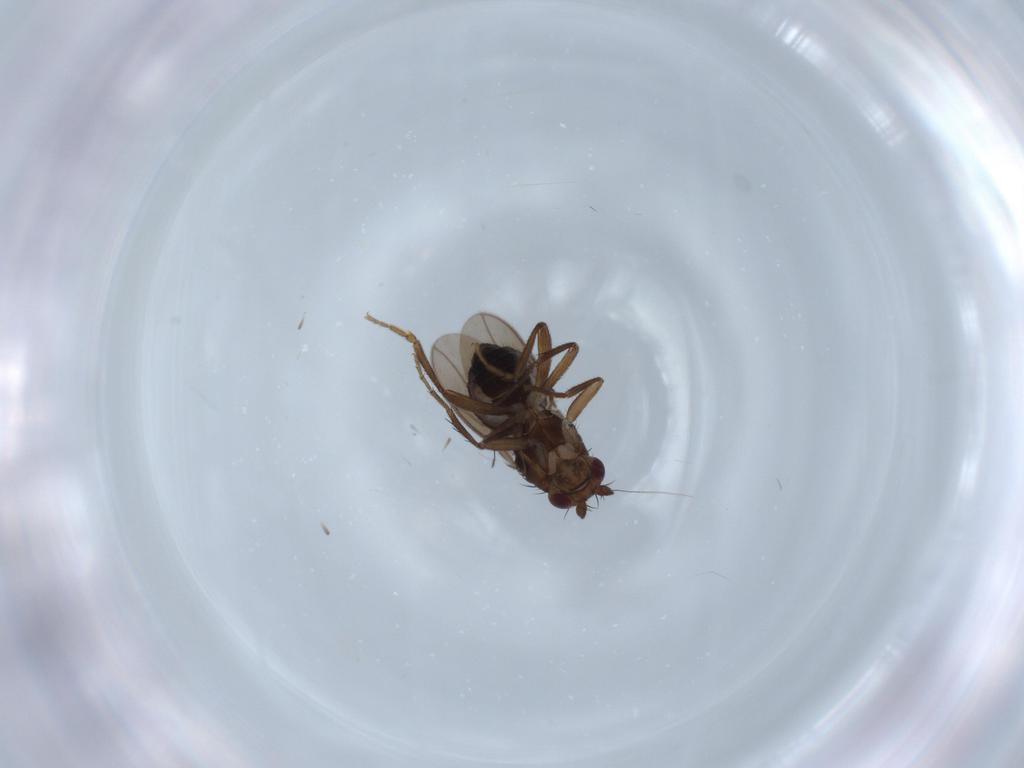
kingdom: Animalia
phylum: Arthropoda
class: Insecta
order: Diptera
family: Sphaeroceridae
